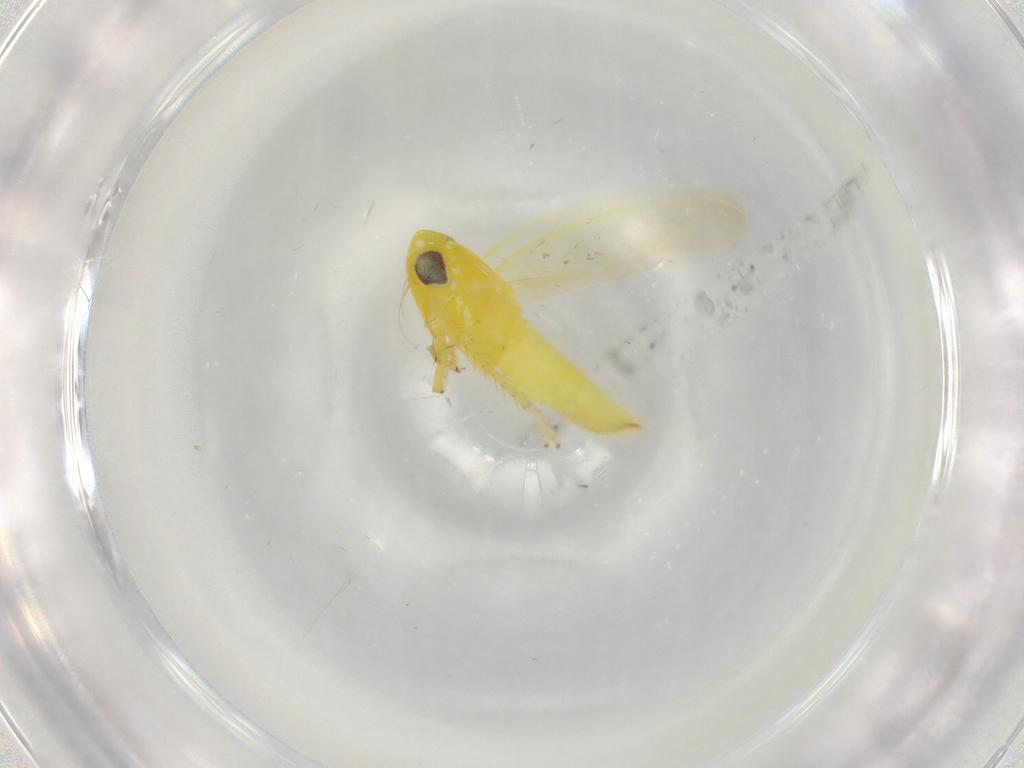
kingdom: Animalia
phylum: Arthropoda
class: Insecta
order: Hemiptera
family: Cicadellidae
